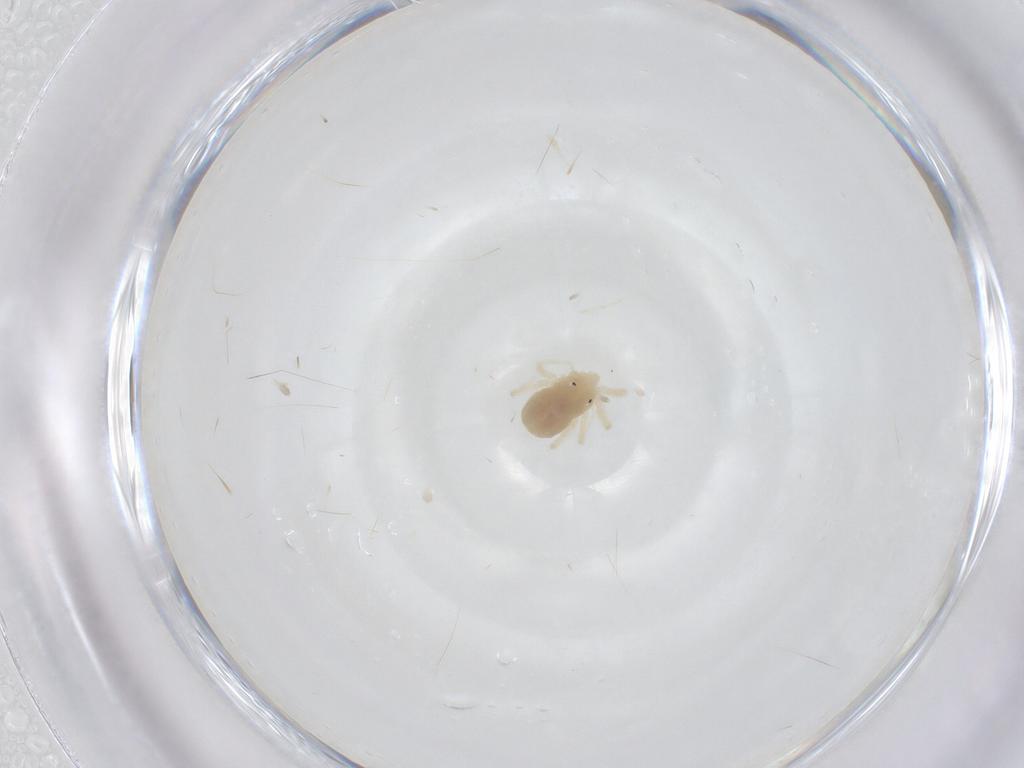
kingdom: Animalia
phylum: Arthropoda
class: Arachnida
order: Trombidiformes
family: Anystidae
